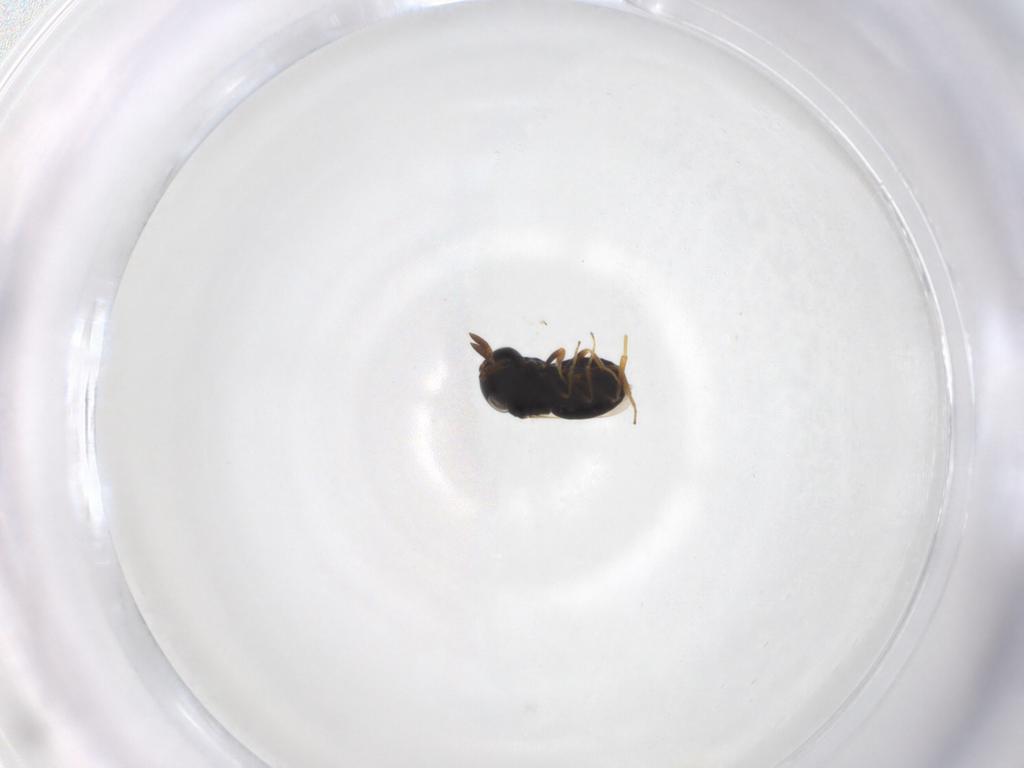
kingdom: Animalia
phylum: Arthropoda
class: Insecta
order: Hymenoptera
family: Scelionidae
